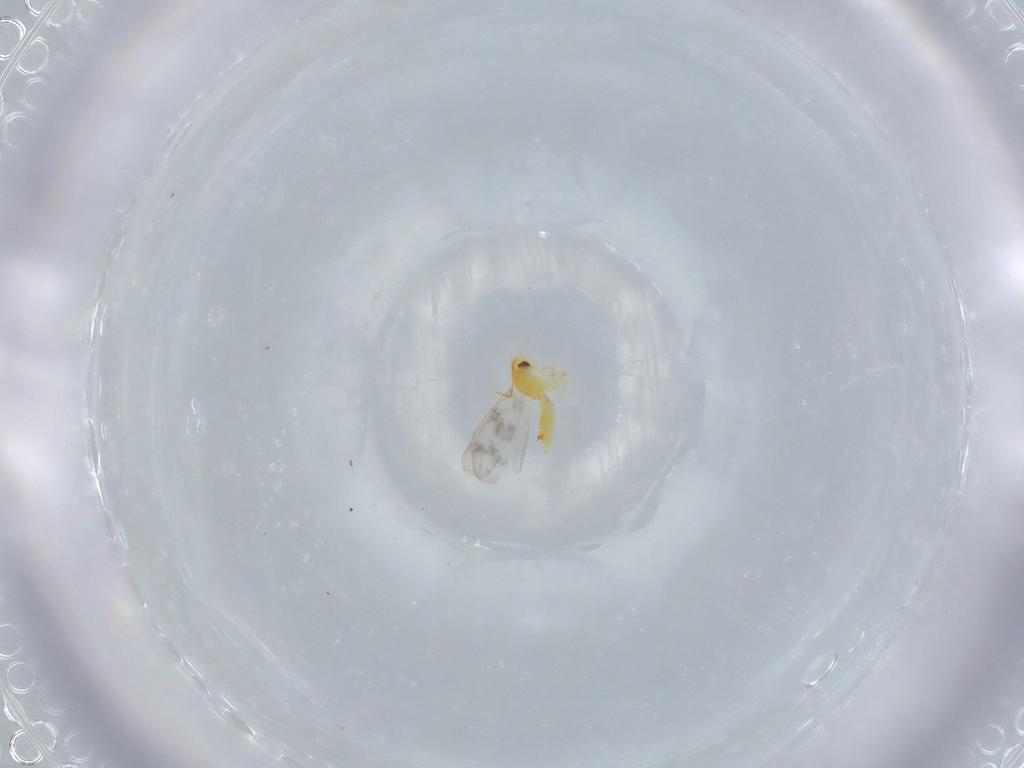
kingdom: Animalia
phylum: Arthropoda
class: Insecta
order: Hemiptera
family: Aleyrodidae
